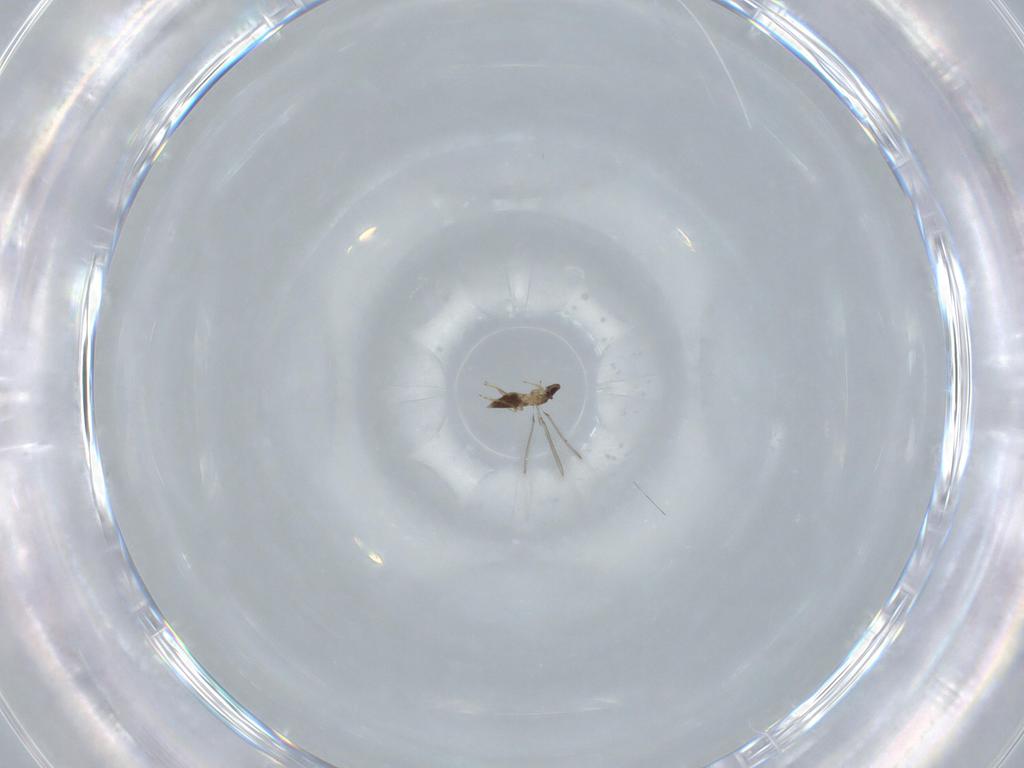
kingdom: Animalia
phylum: Arthropoda
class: Insecta
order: Hymenoptera
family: Mymaridae
